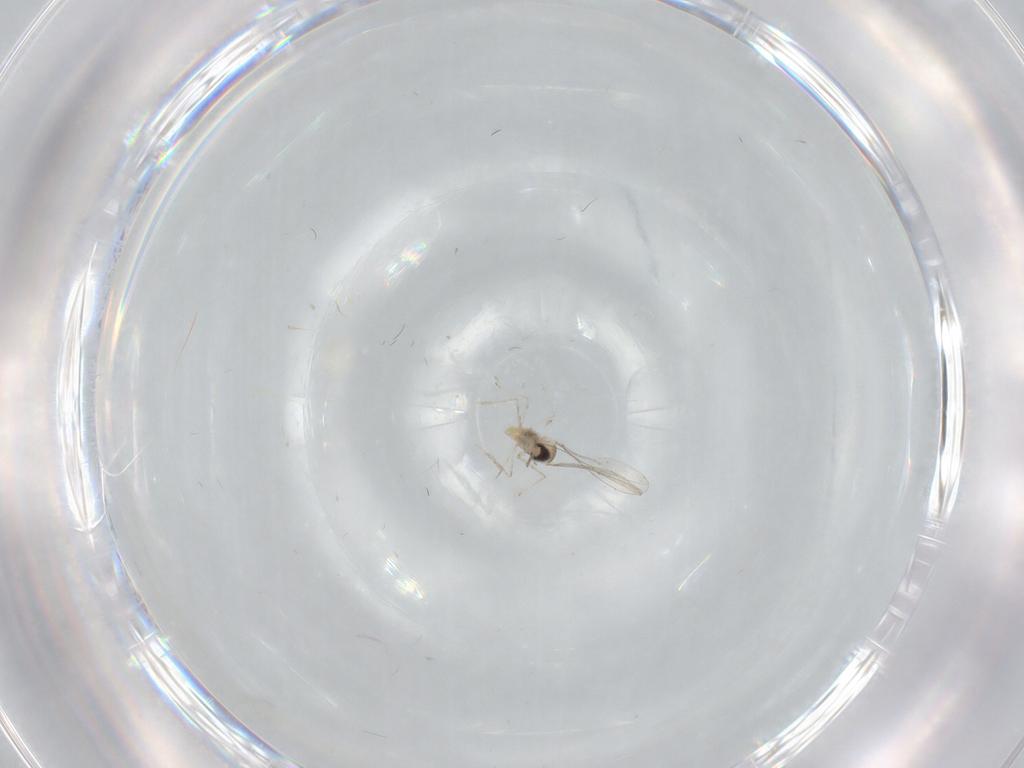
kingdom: Animalia
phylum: Arthropoda
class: Insecta
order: Diptera
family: Cecidomyiidae
